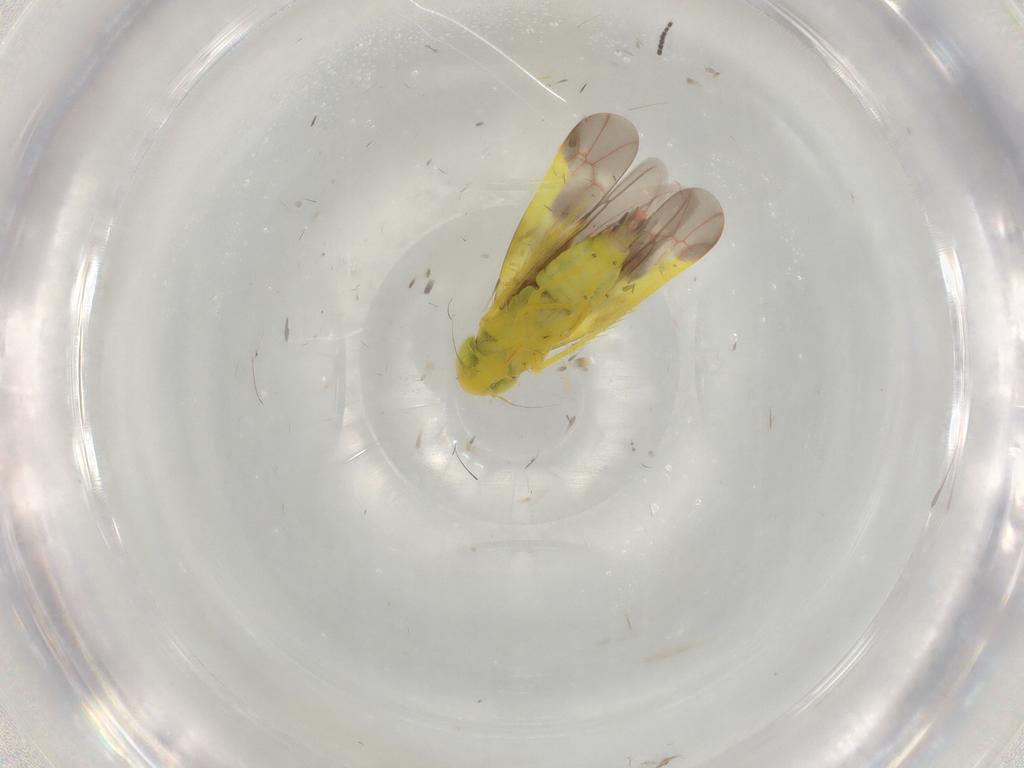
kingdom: Animalia
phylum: Arthropoda
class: Insecta
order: Hemiptera
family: Cicadellidae
